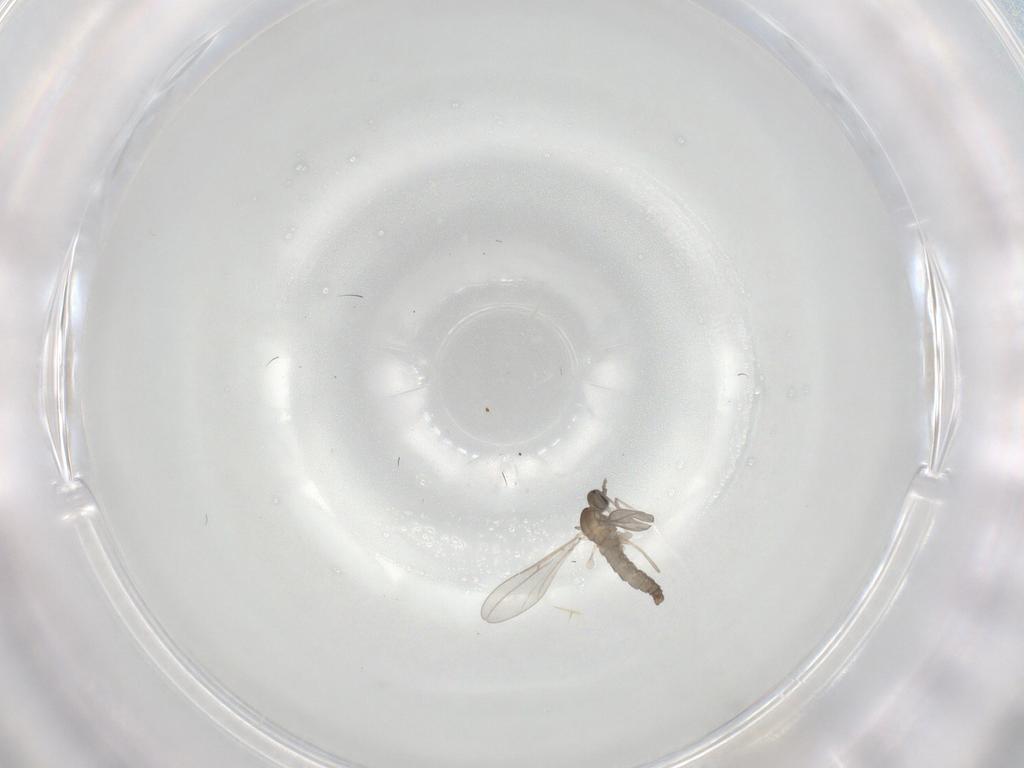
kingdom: Animalia
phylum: Arthropoda
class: Insecta
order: Diptera
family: Cecidomyiidae
